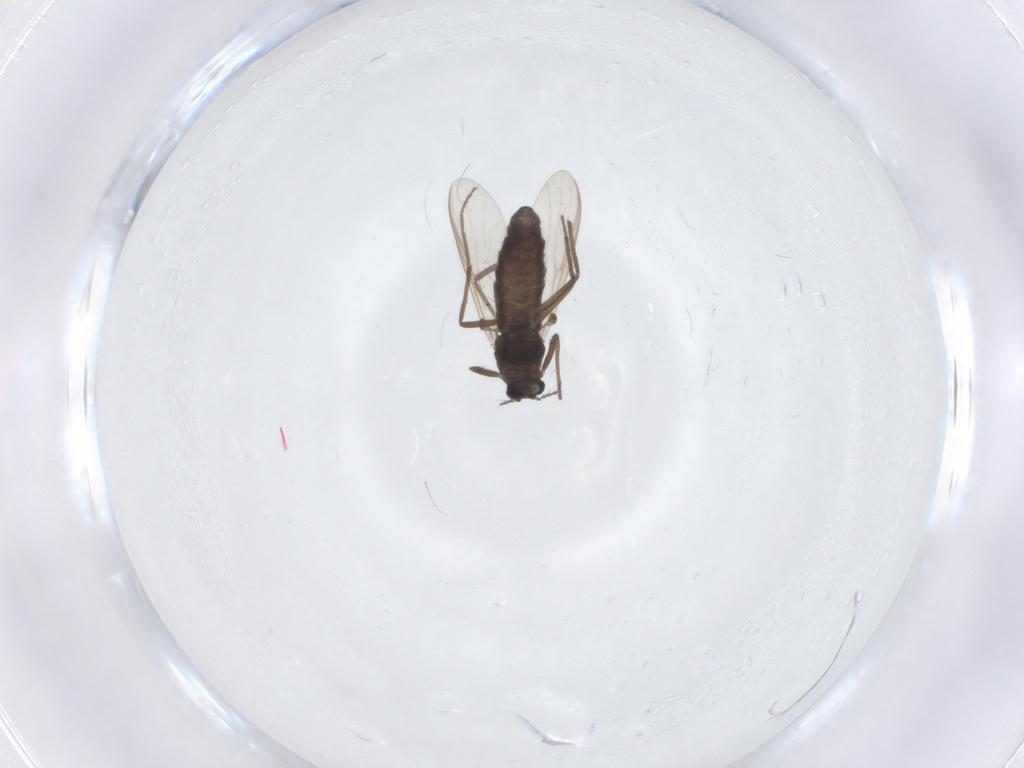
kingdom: Animalia
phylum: Arthropoda
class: Insecta
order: Diptera
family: Chironomidae
